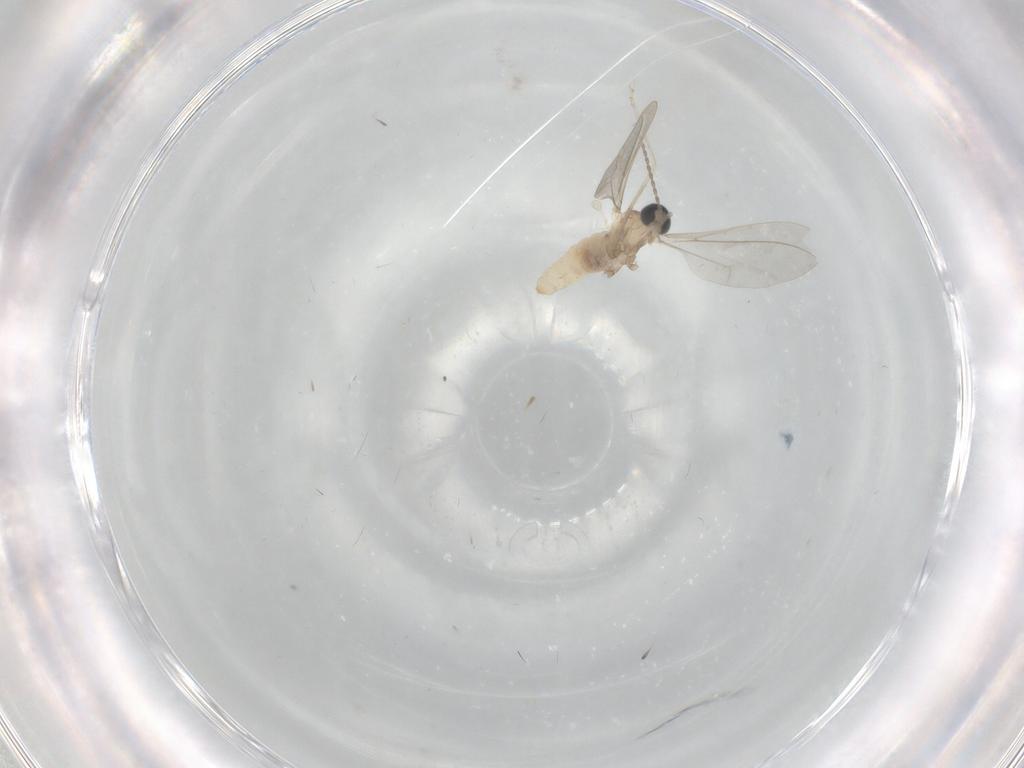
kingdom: Animalia
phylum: Arthropoda
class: Insecta
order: Diptera
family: Cecidomyiidae
